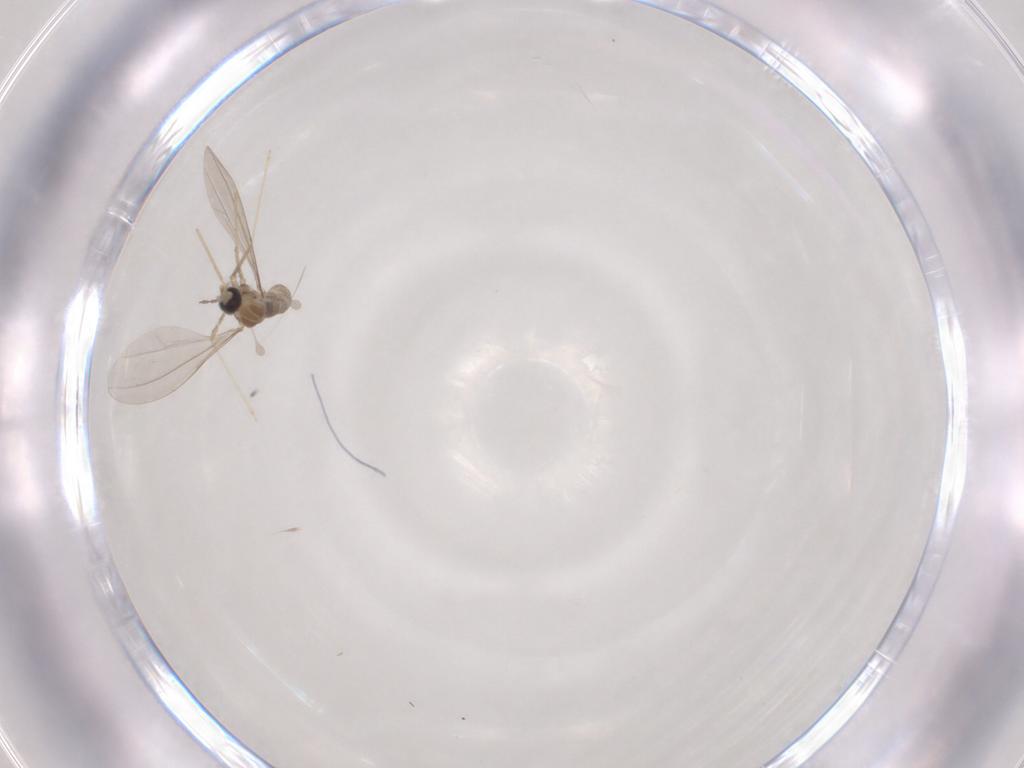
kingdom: Animalia
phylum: Arthropoda
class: Insecta
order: Diptera
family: Cecidomyiidae
